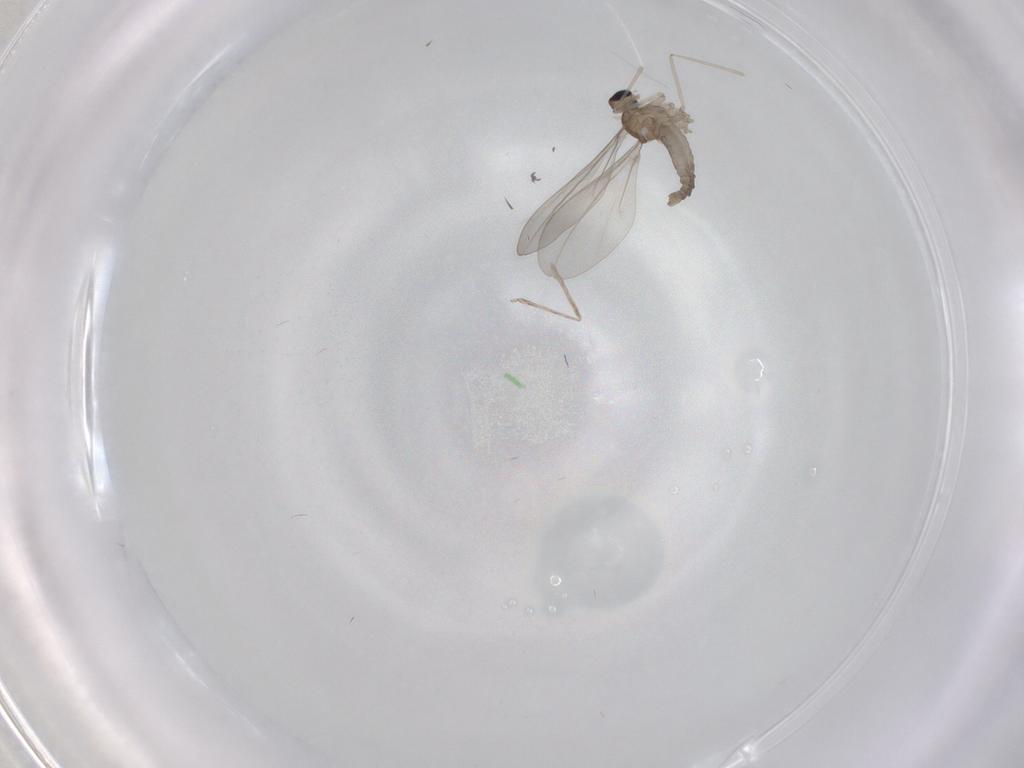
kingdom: Animalia
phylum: Arthropoda
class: Insecta
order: Diptera
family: Cecidomyiidae
